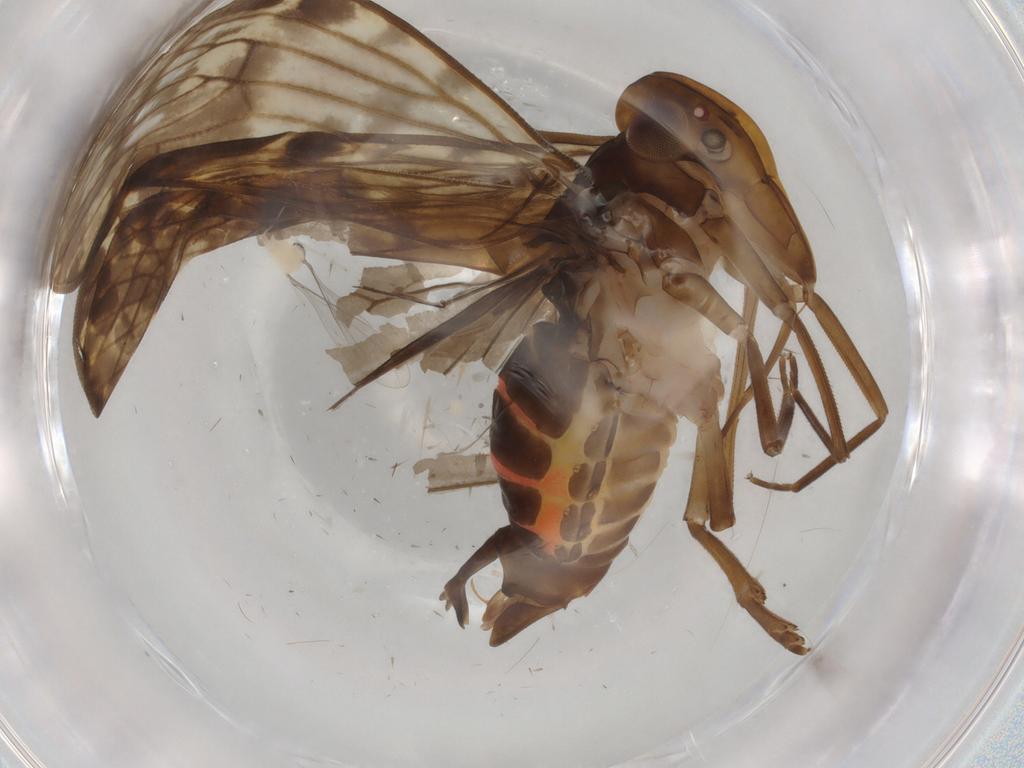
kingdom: Animalia
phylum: Arthropoda
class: Insecta
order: Hemiptera
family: Cicadellidae
